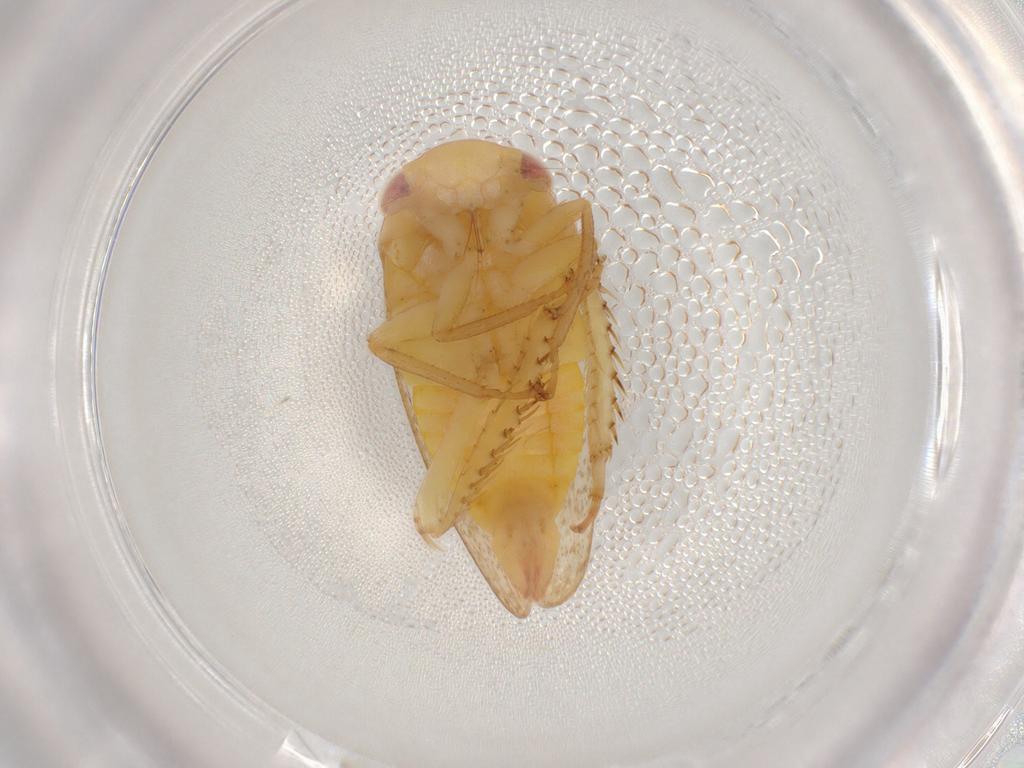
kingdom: Animalia
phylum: Arthropoda
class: Insecta
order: Hemiptera
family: Cicadellidae
